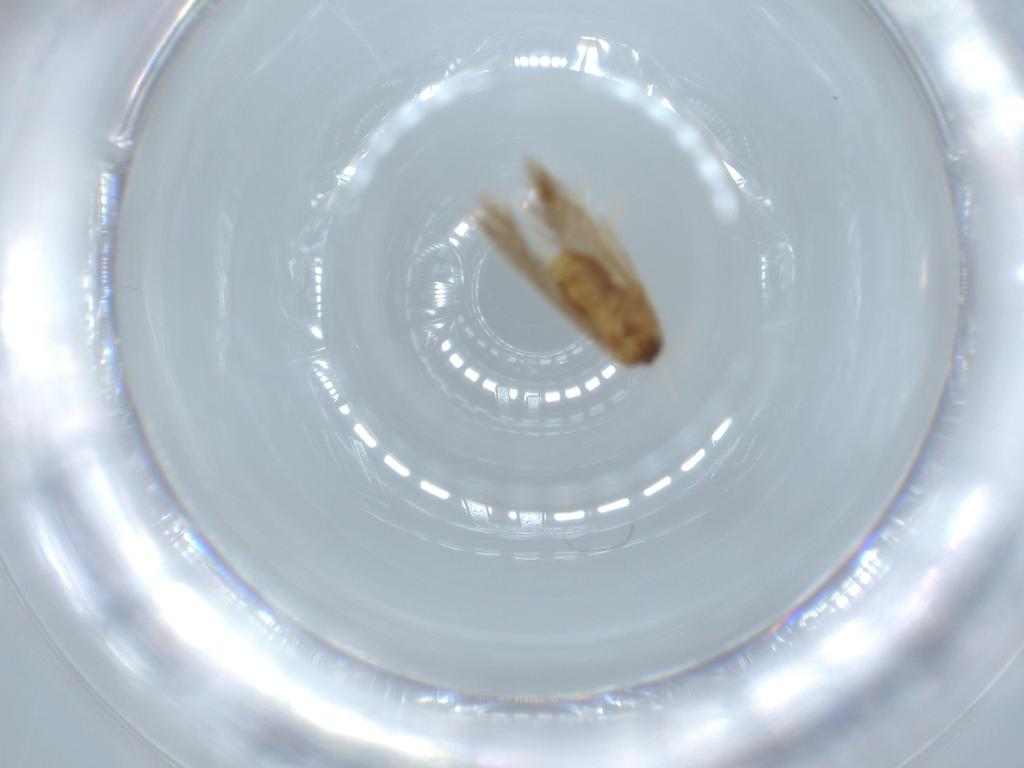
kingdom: Animalia
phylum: Arthropoda
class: Insecta
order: Lepidoptera
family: Nepticulidae
